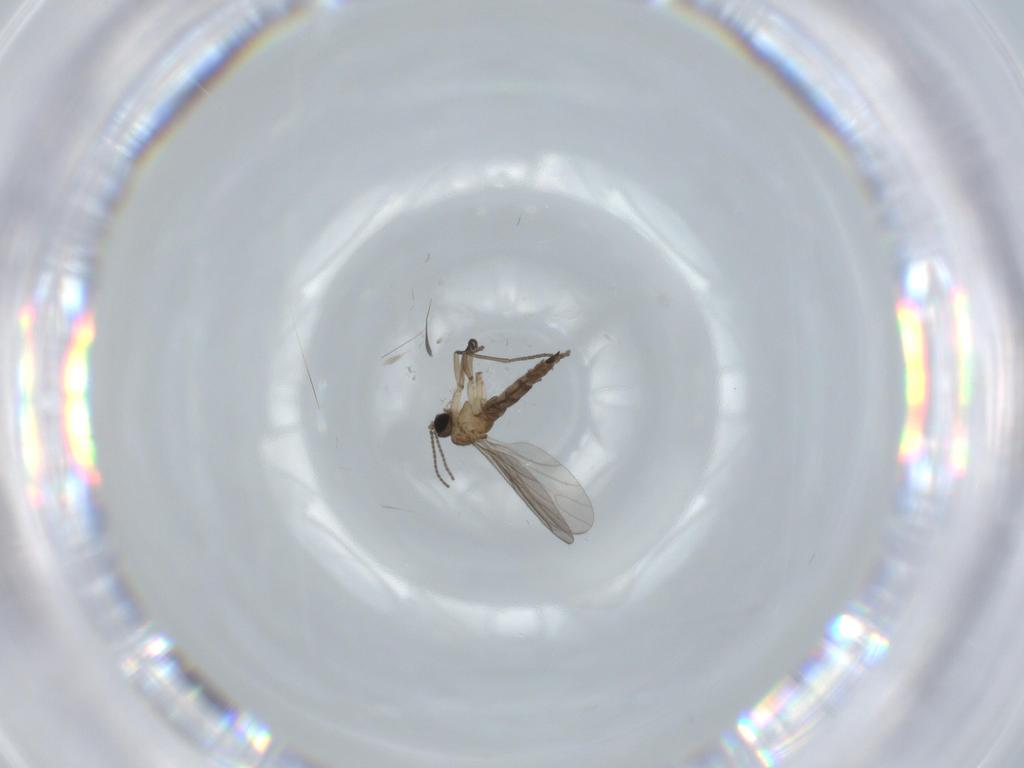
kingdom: Animalia
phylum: Arthropoda
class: Insecta
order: Diptera
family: Sciaridae
